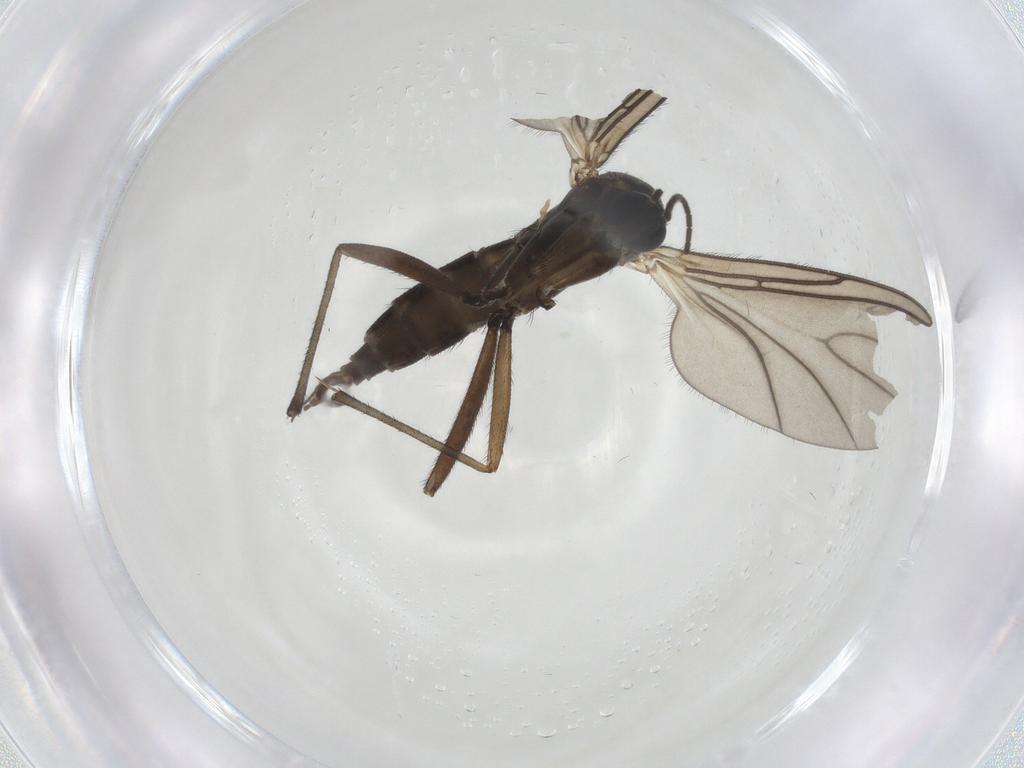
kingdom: Animalia
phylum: Arthropoda
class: Insecta
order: Diptera
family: Sciaridae
